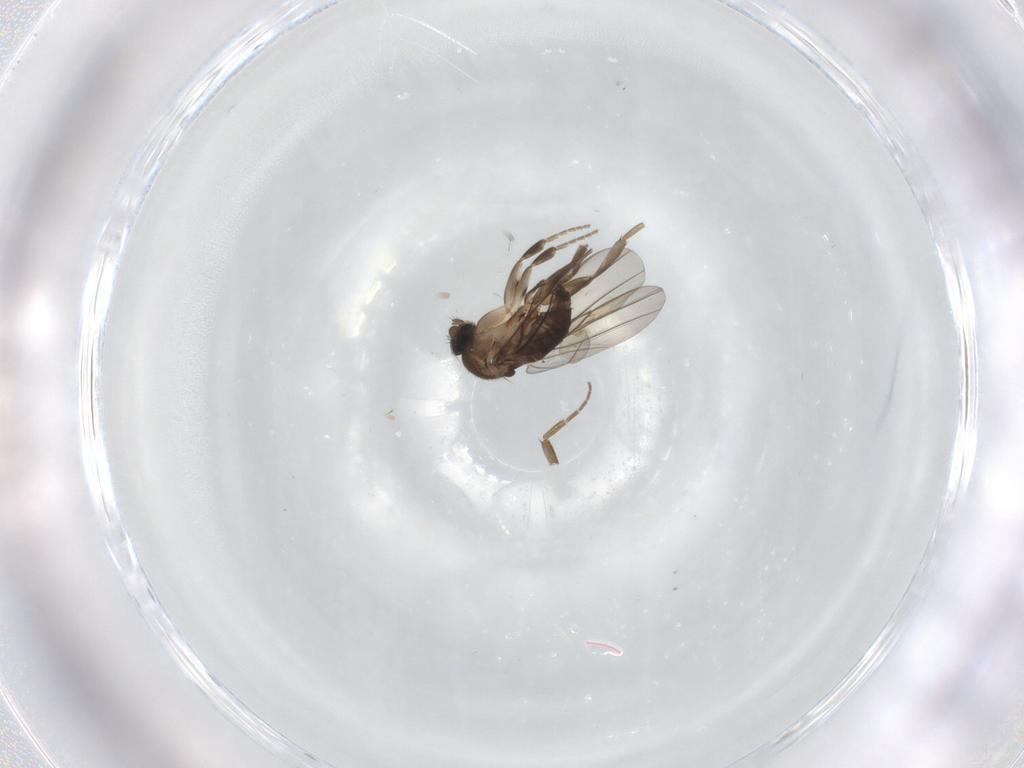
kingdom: Animalia
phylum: Arthropoda
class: Insecta
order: Diptera
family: Phoridae
